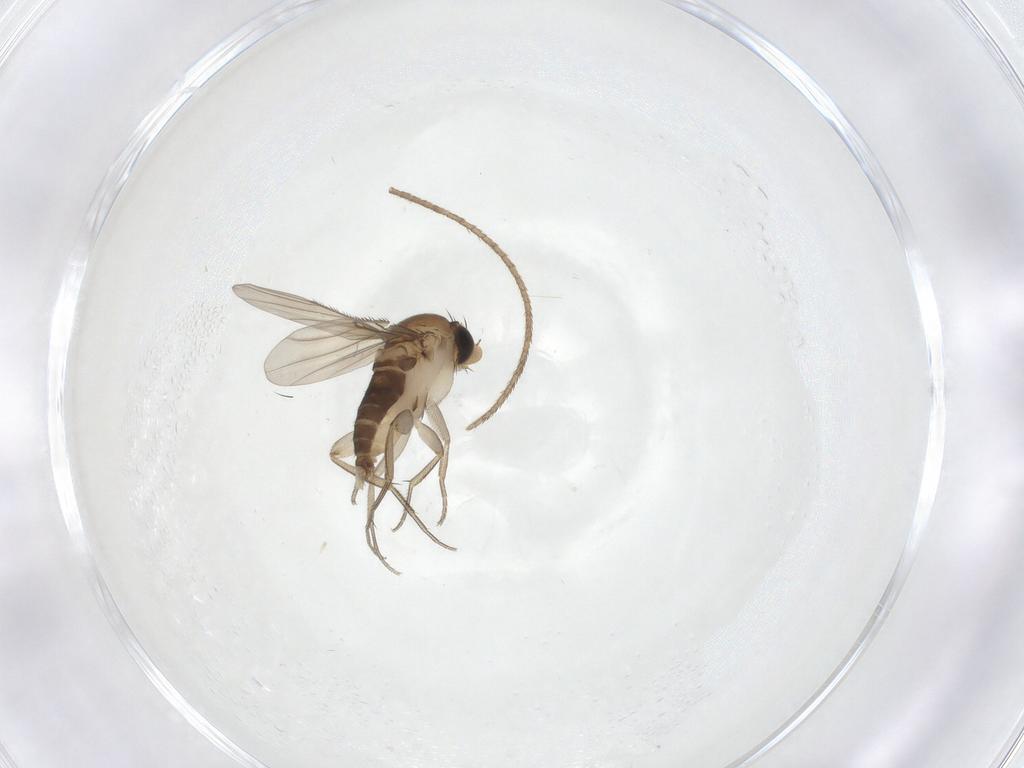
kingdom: Animalia
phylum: Arthropoda
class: Insecta
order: Diptera
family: Phoridae
